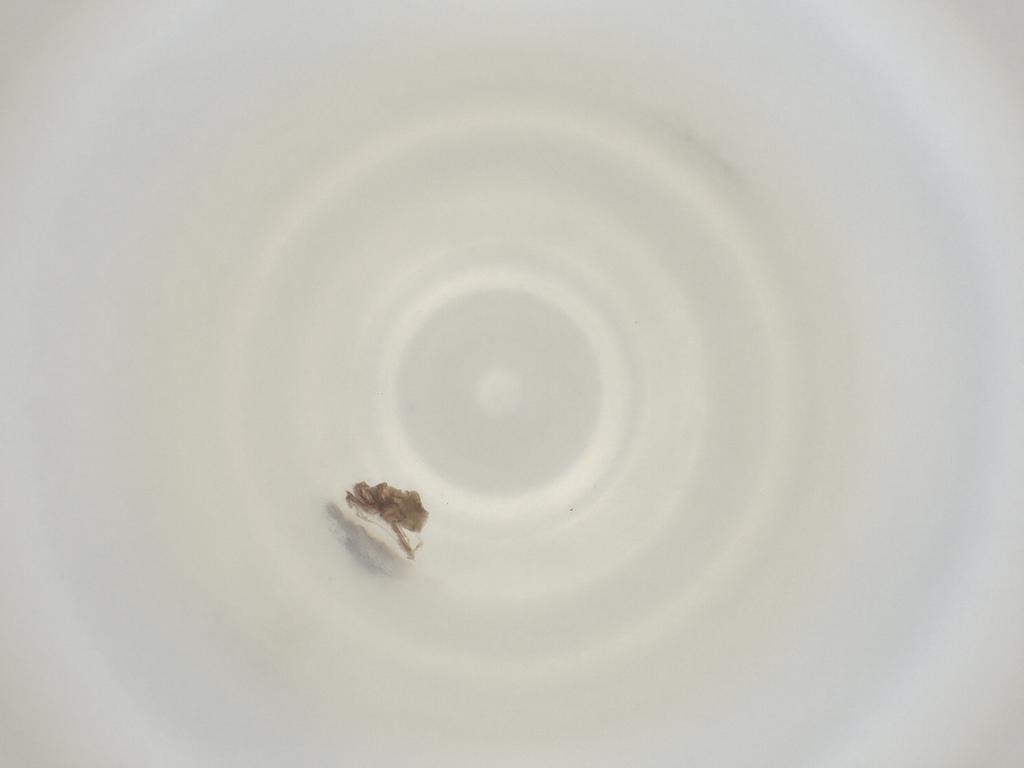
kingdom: Animalia
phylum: Arthropoda
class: Insecta
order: Diptera
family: Cecidomyiidae
